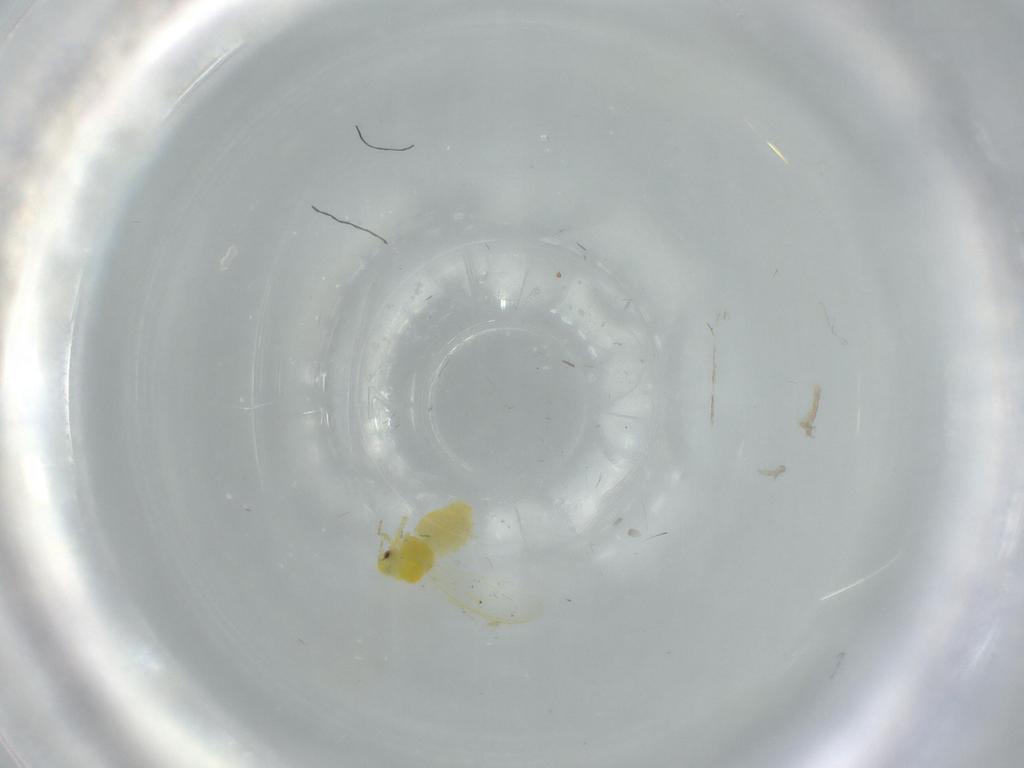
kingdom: Animalia
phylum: Arthropoda
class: Insecta
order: Hemiptera
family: Aleyrodidae
